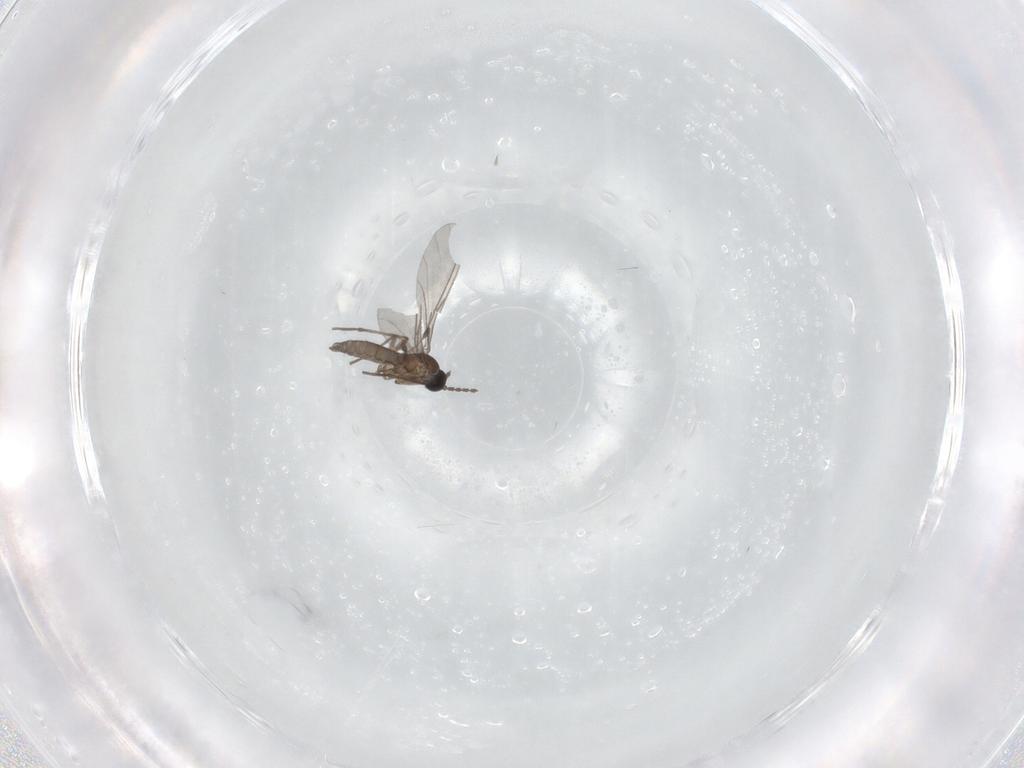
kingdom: Animalia
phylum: Arthropoda
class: Insecta
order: Diptera
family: Sciaridae
